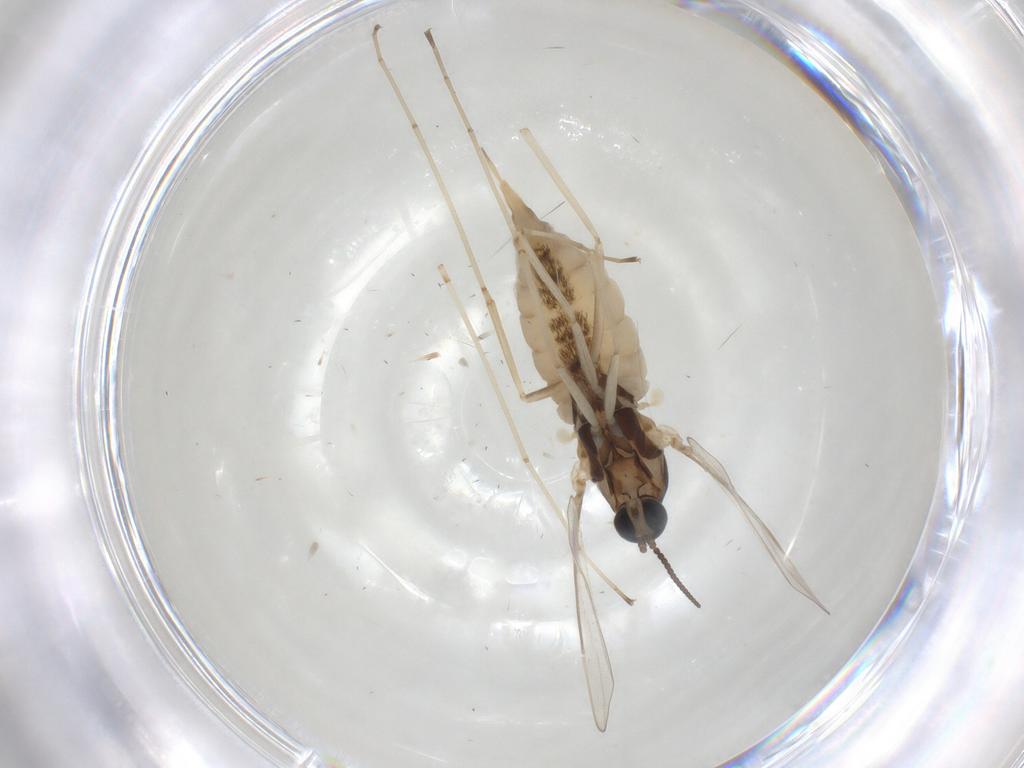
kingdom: Animalia
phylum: Arthropoda
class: Insecta
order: Diptera
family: Cecidomyiidae
